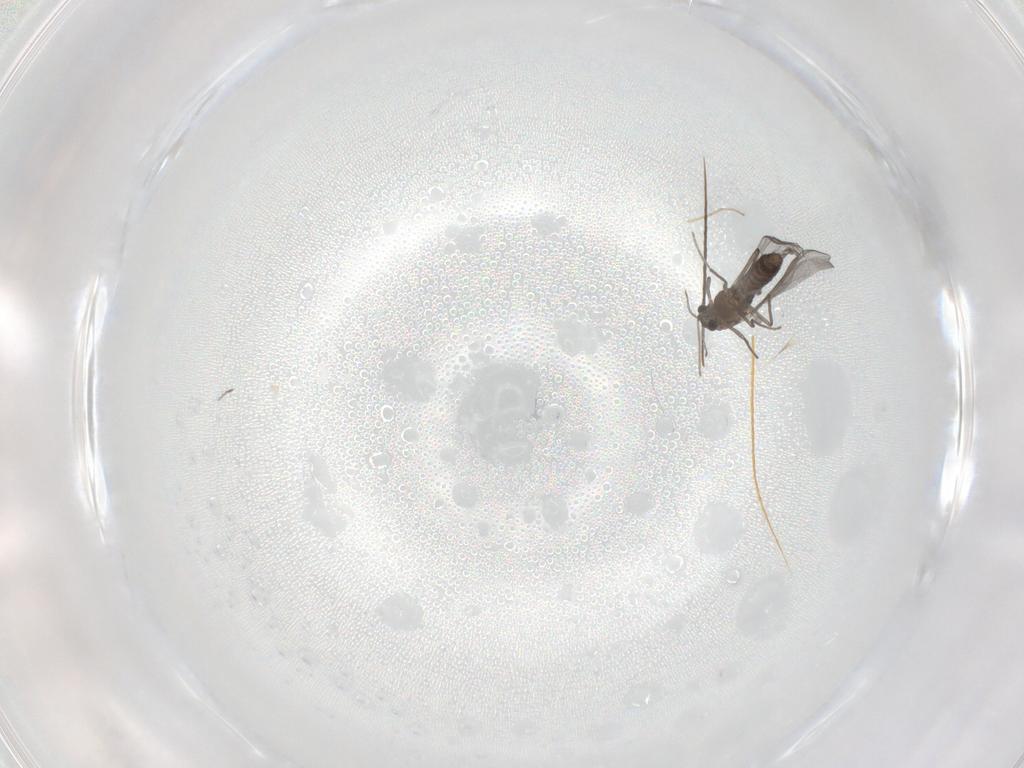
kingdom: Animalia
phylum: Arthropoda
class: Insecta
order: Diptera
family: Chironomidae
